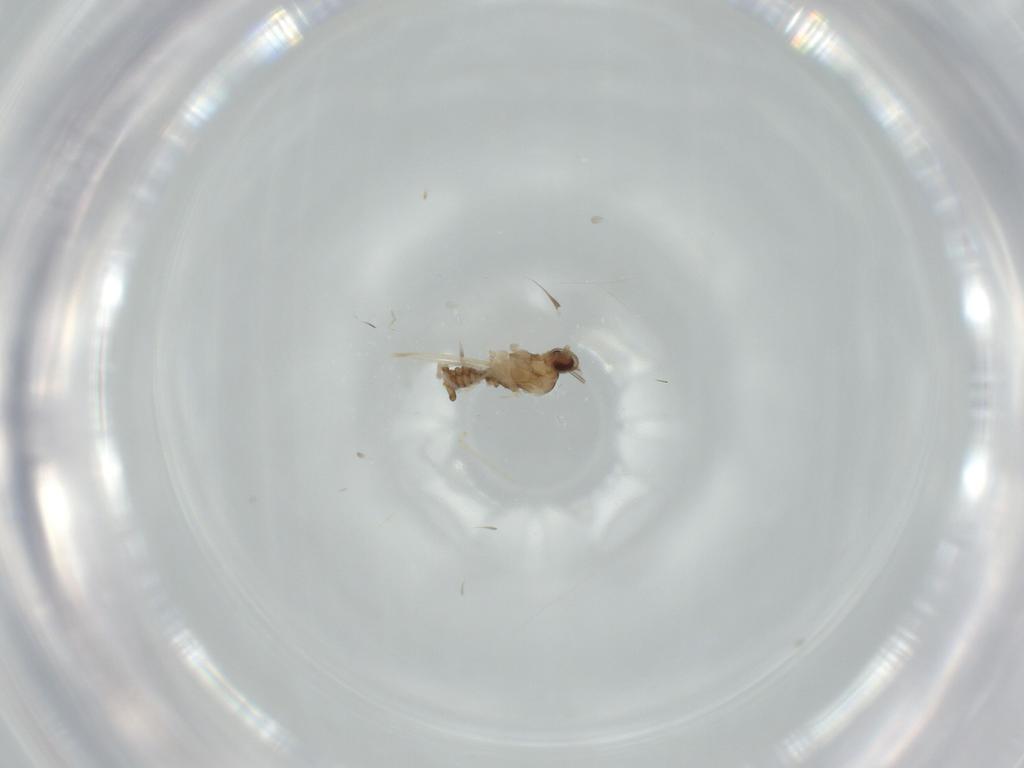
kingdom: Animalia
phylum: Arthropoda
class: Insecta
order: Diptera
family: Cecidomyiidae
